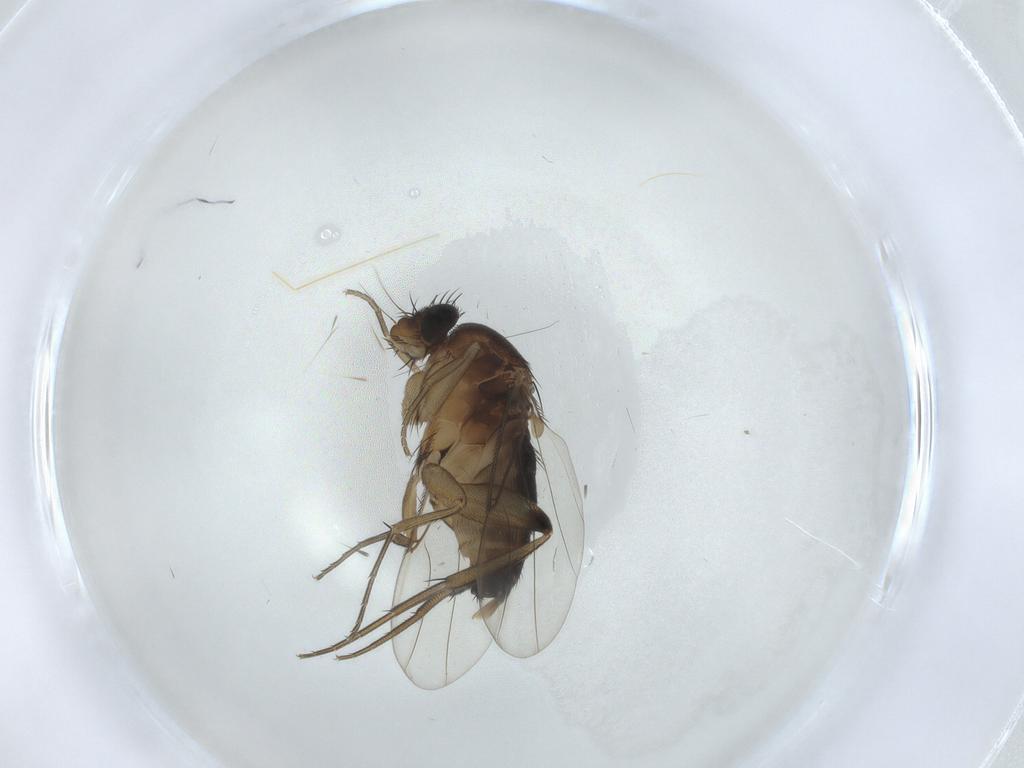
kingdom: Animalia
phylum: Arthropoda
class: Insecta
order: Diptera
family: Phoridae
